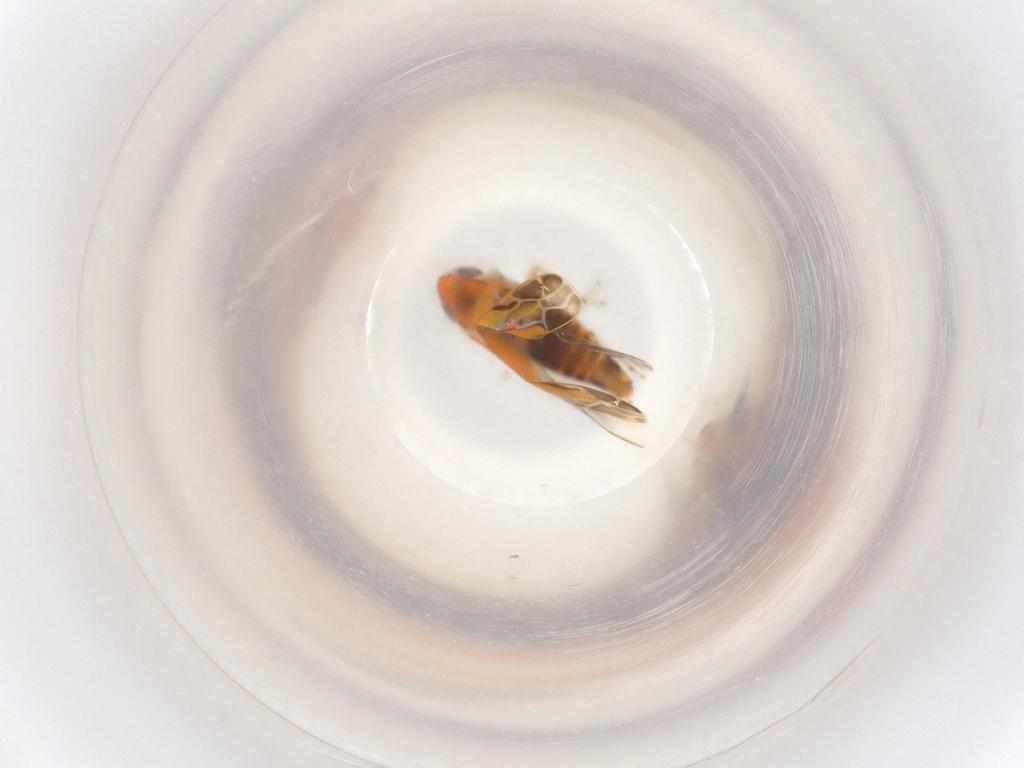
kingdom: Animalia
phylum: Arthropoda
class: Insecta
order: Hemiptera
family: Cicadellidae
